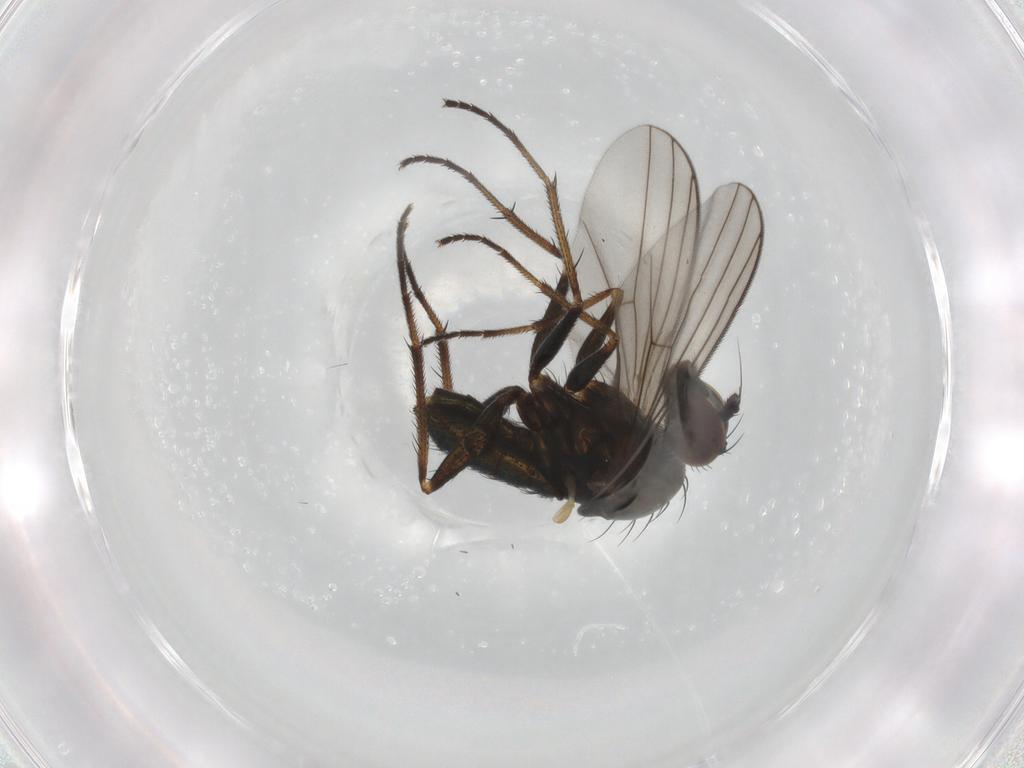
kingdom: Animalia
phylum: Arthropoda
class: Insecta
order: Diptera
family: Dolichopodidae
